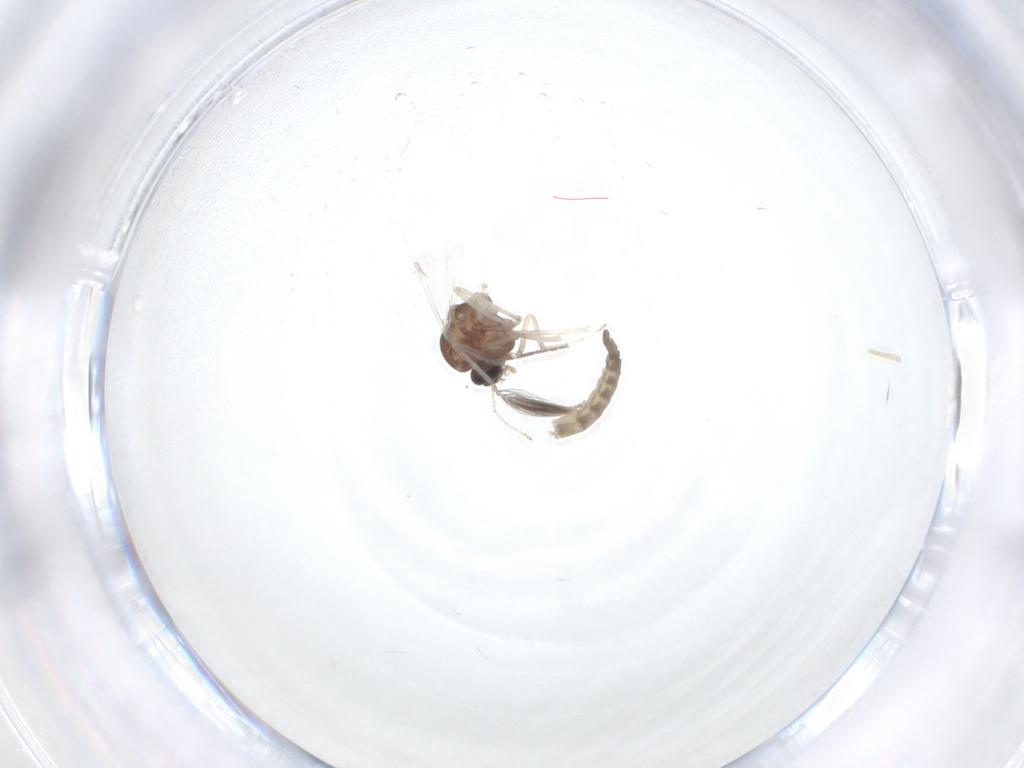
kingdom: Animalia
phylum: Arthropoda
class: Insecta
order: Diptera
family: Ceratopogonidae
